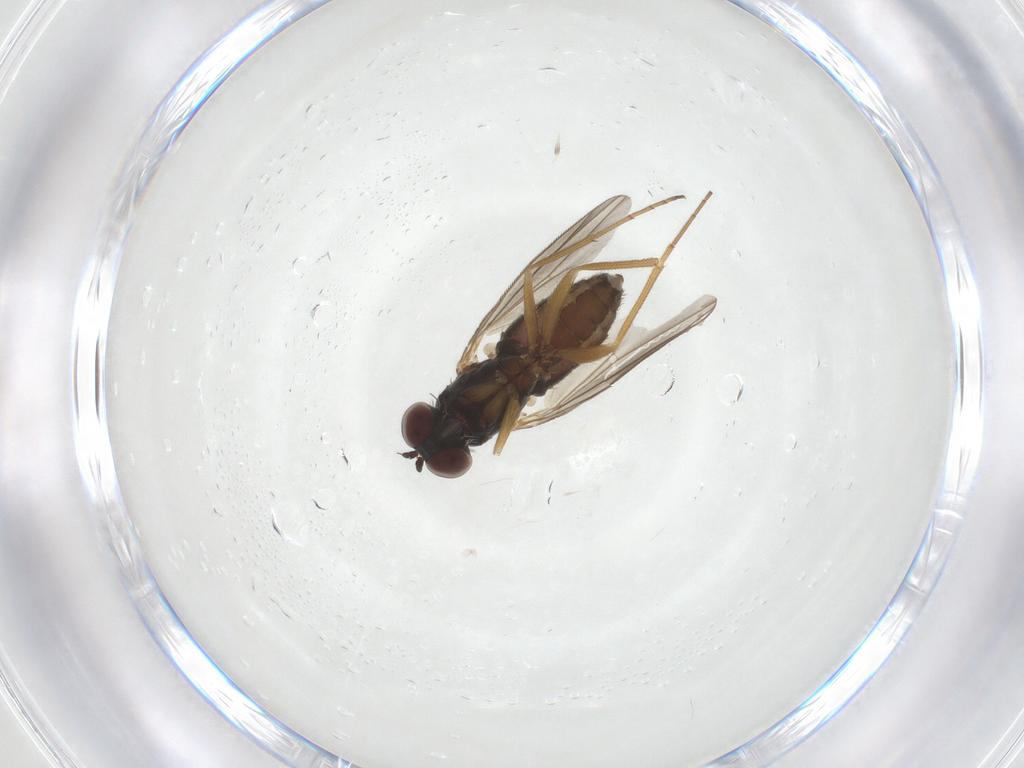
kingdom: Animalia
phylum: Arthropoda
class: Insecta
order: Diptera
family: Dolichopodidae
